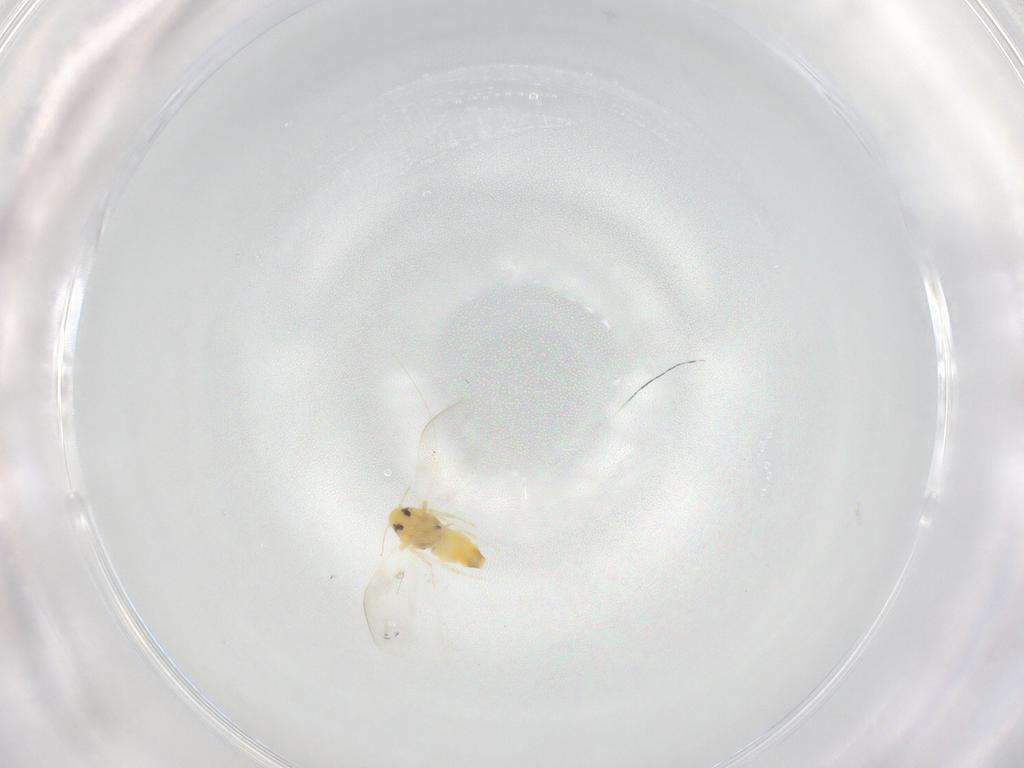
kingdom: Animalia
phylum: Arthropoda
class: Insecta
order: Hemiptera
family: Aleyrodidae
